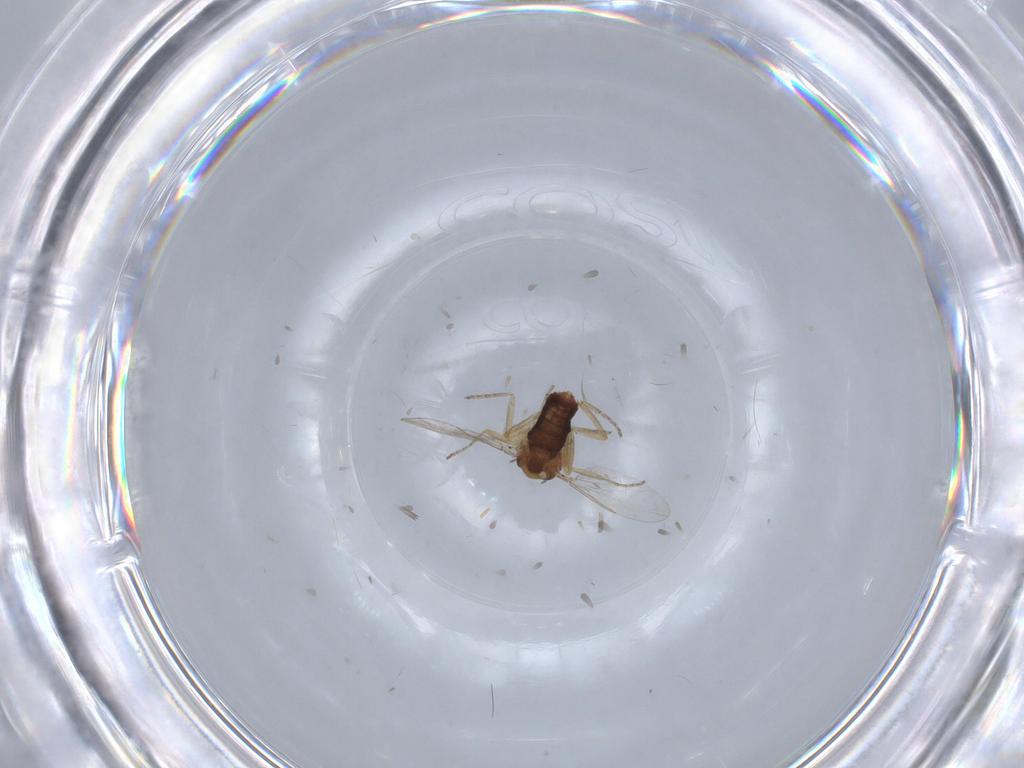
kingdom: Animalia
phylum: Arthropoda
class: Insecta
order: Diptera
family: Ceratopogonidae
